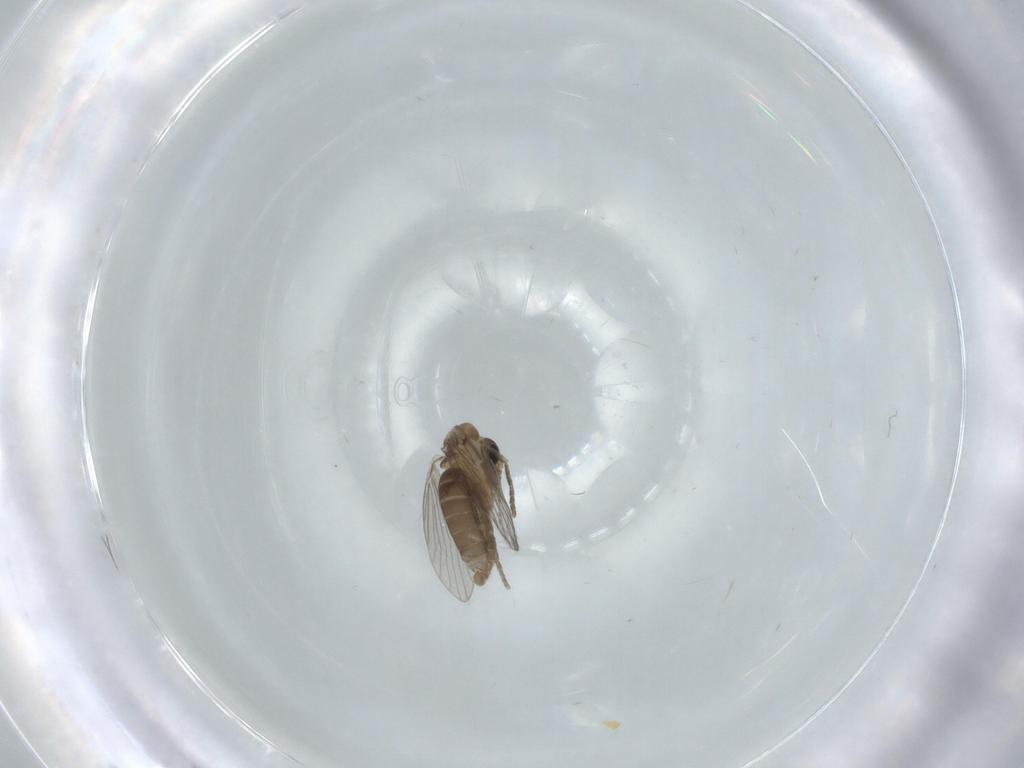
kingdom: Animalia
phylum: Arthropoda
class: Insecta
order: Diptera
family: Psychodidae
